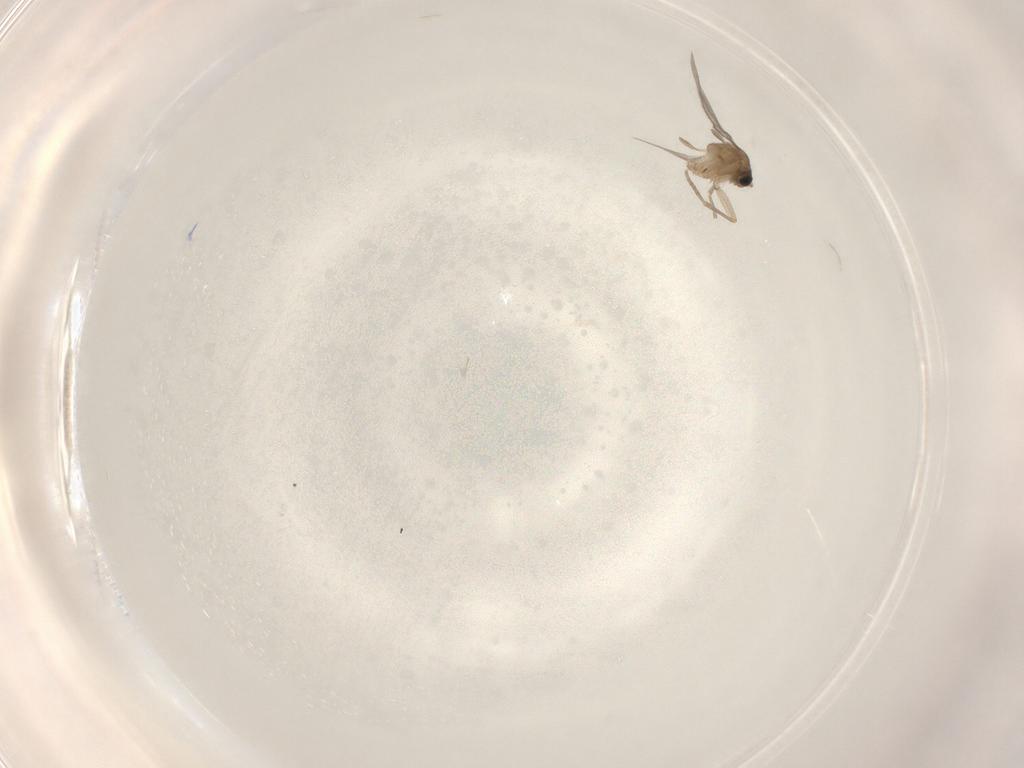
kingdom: Animalia
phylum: Arthropoda
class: Insecta
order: Diptera
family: Sciaridae
